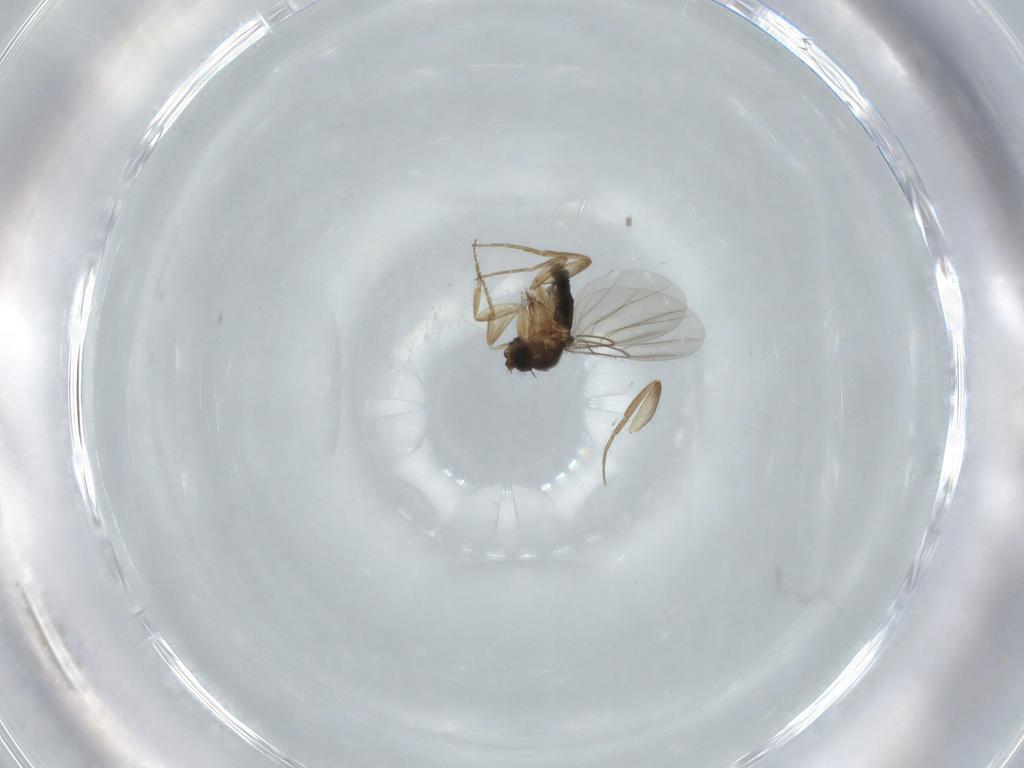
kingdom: Animalia
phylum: Arthropoda
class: Insecta
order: Diptera
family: Phoridae
